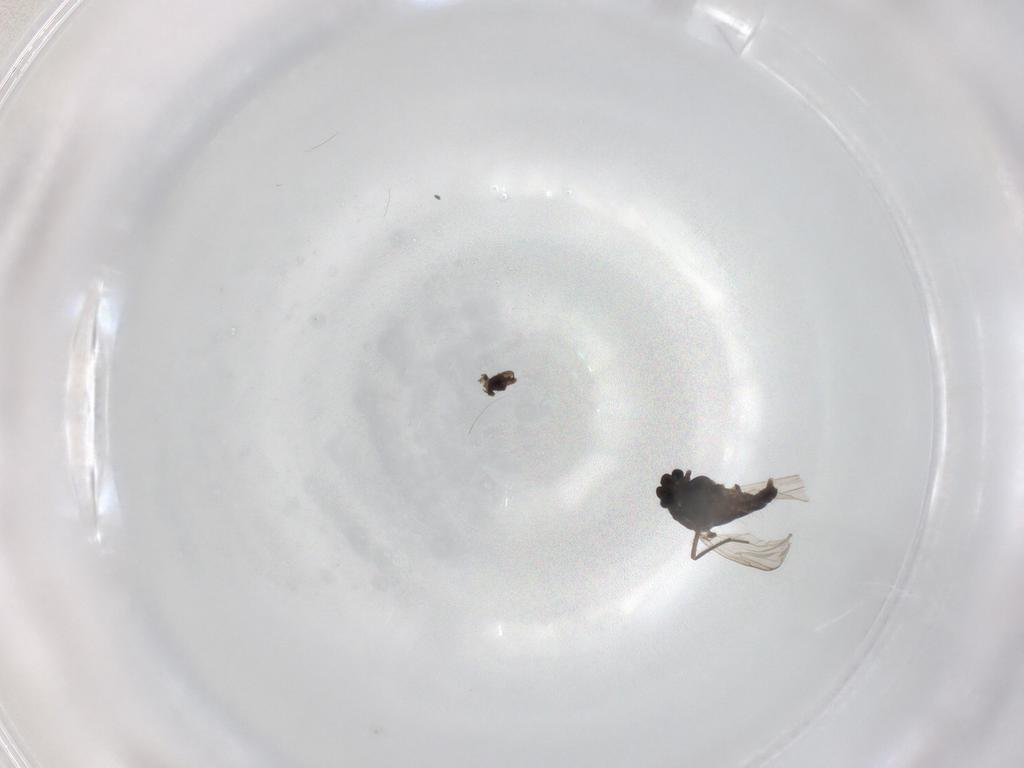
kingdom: Animalia
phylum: Arthropoda
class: Insecta
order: Diptera
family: Chironomidae
